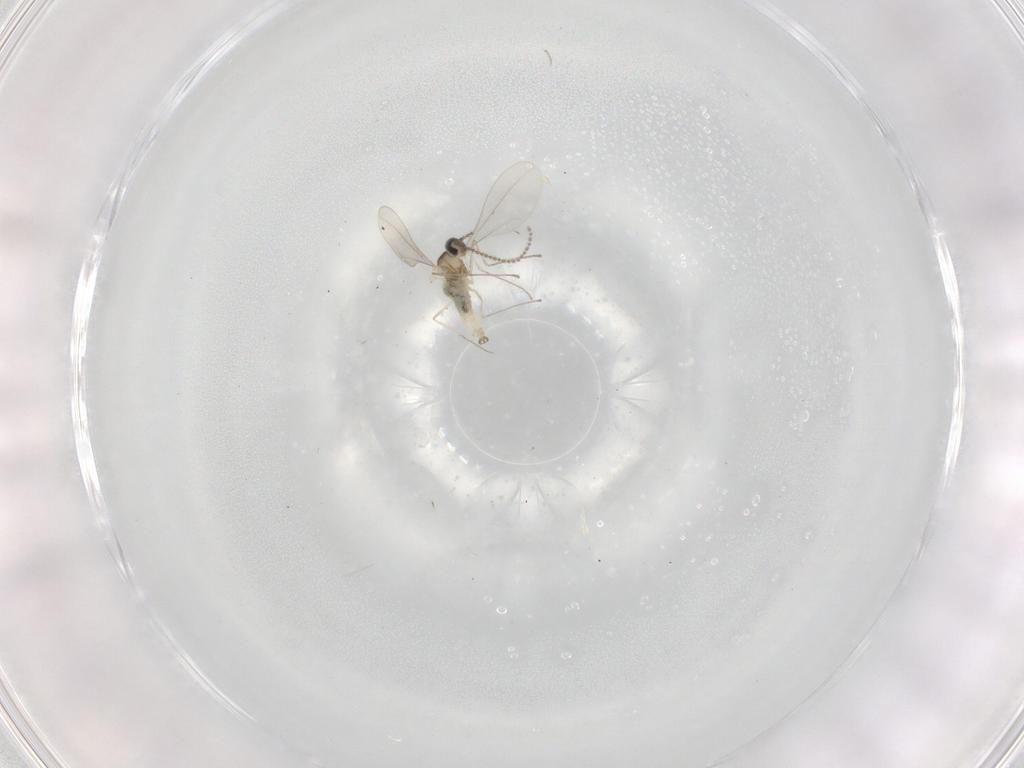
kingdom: Animalia
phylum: Arthropoda
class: Insecta
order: Diptera
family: Cecidomyiidae
